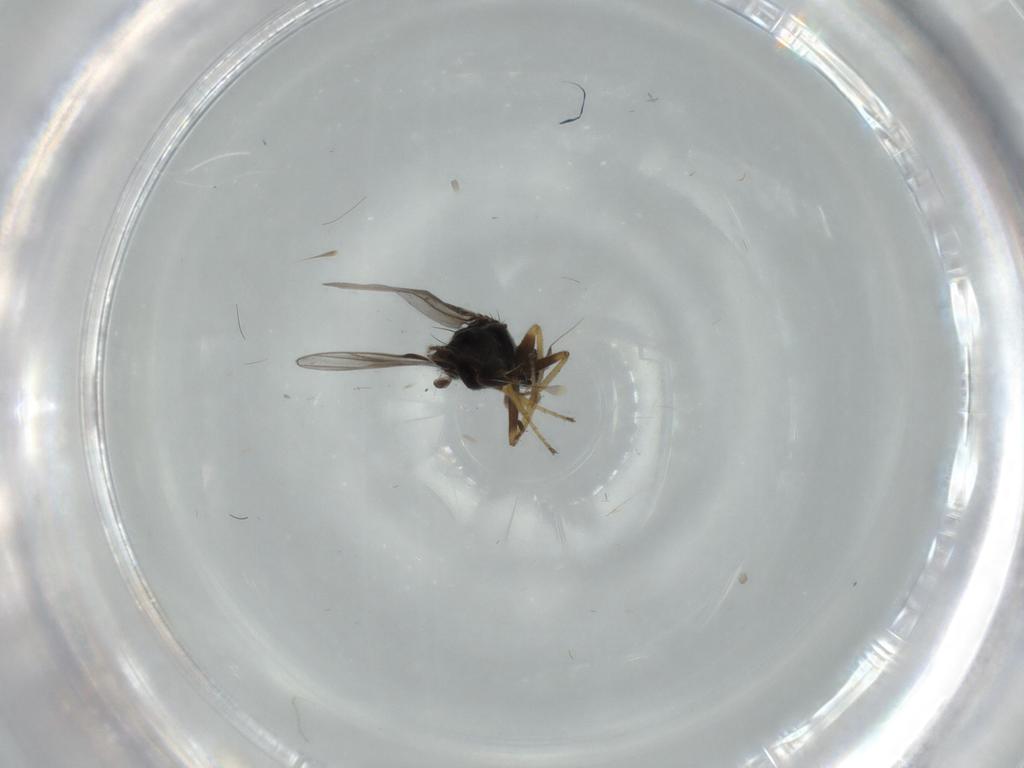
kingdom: Animalia
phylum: Arthropoda
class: Insecta
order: Diptera
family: Hybotidae
